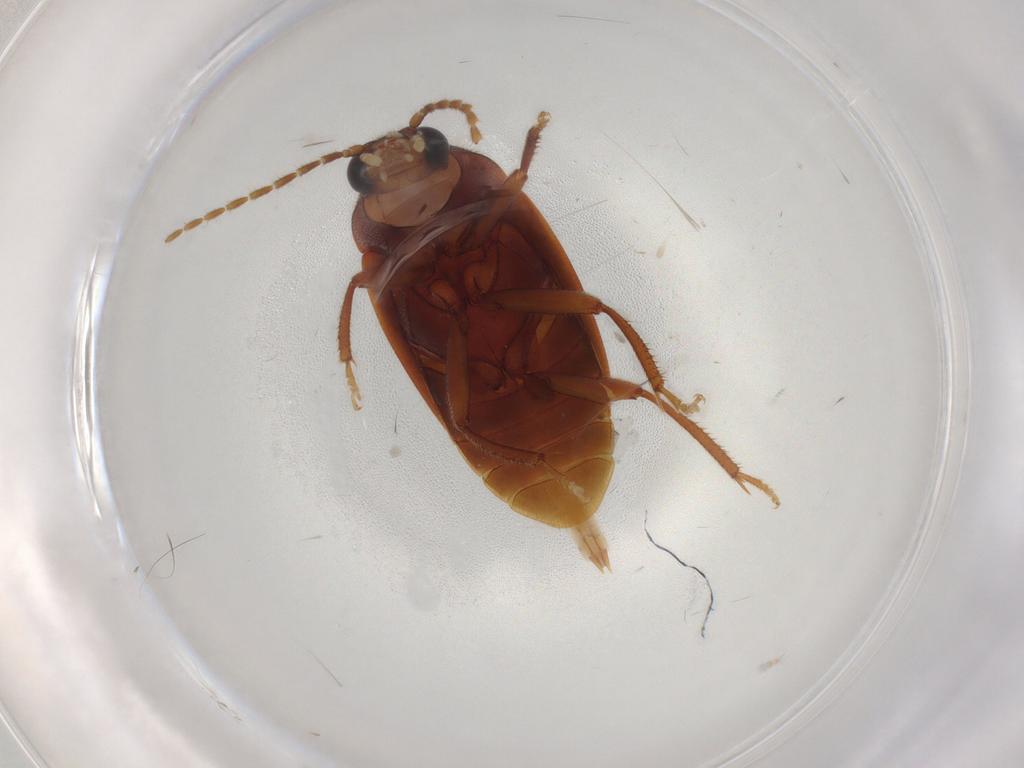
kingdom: Animalia
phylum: Arthropoda
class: Insecta
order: Coleoptera
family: Ptilodactylidae
